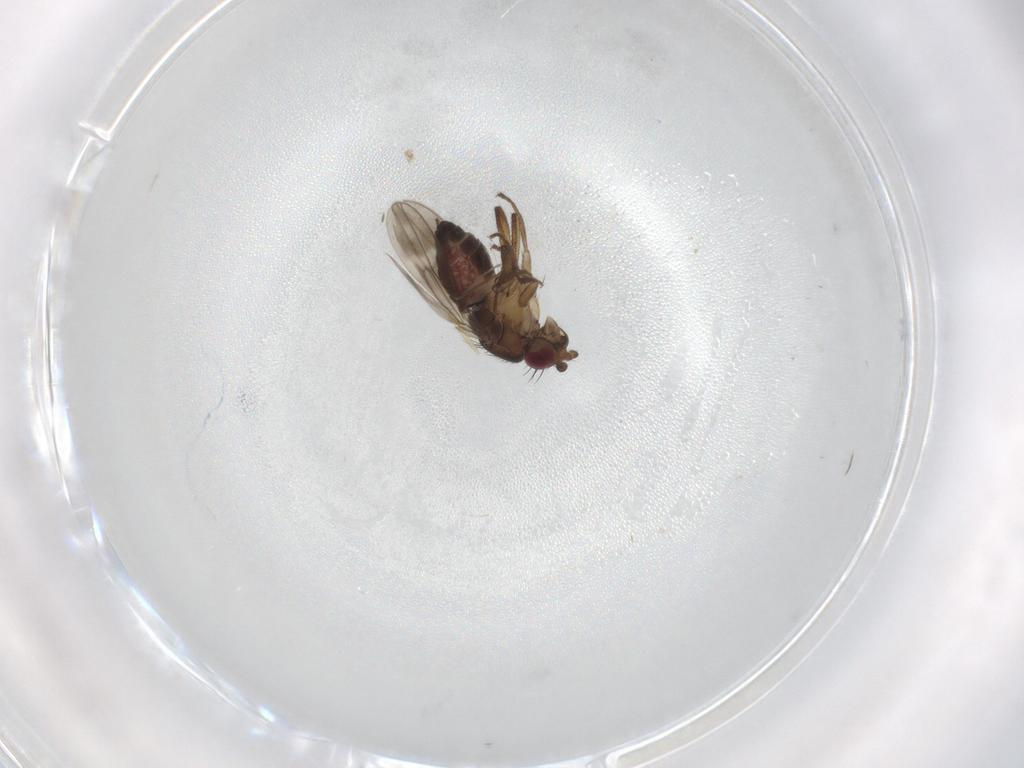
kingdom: Animalia
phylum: Arthropoda
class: Insecta
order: Diptera
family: Sphaeroceridae
